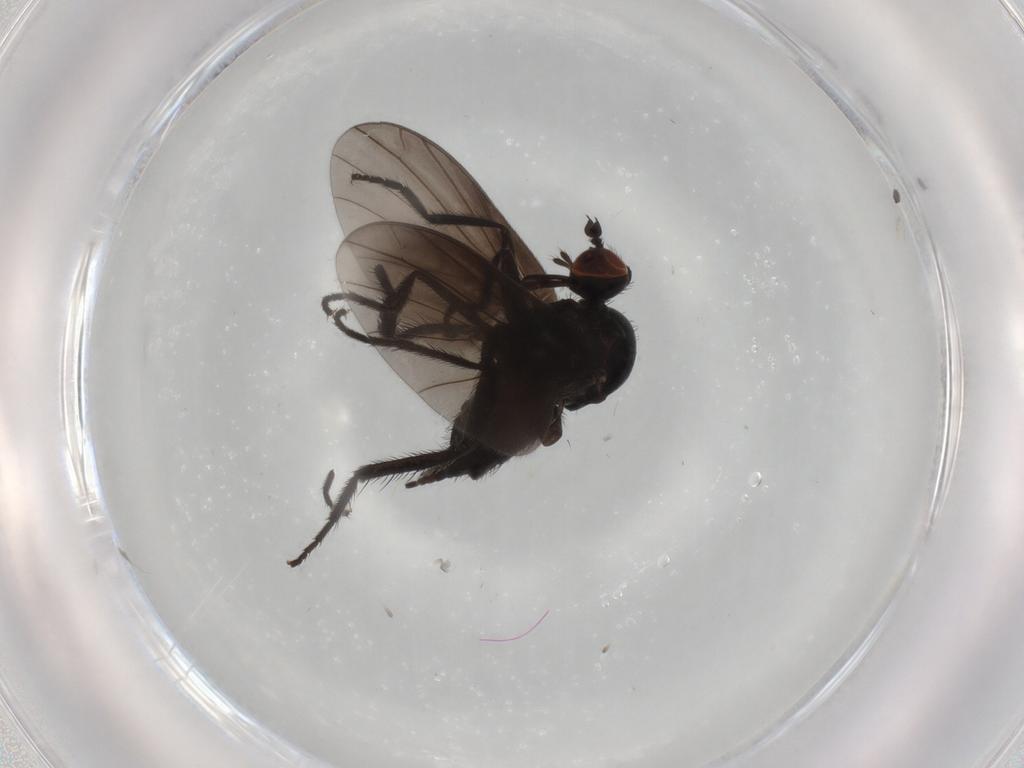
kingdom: Animalia
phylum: Arthropoda
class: Insecta
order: Diptera
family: Empididae
